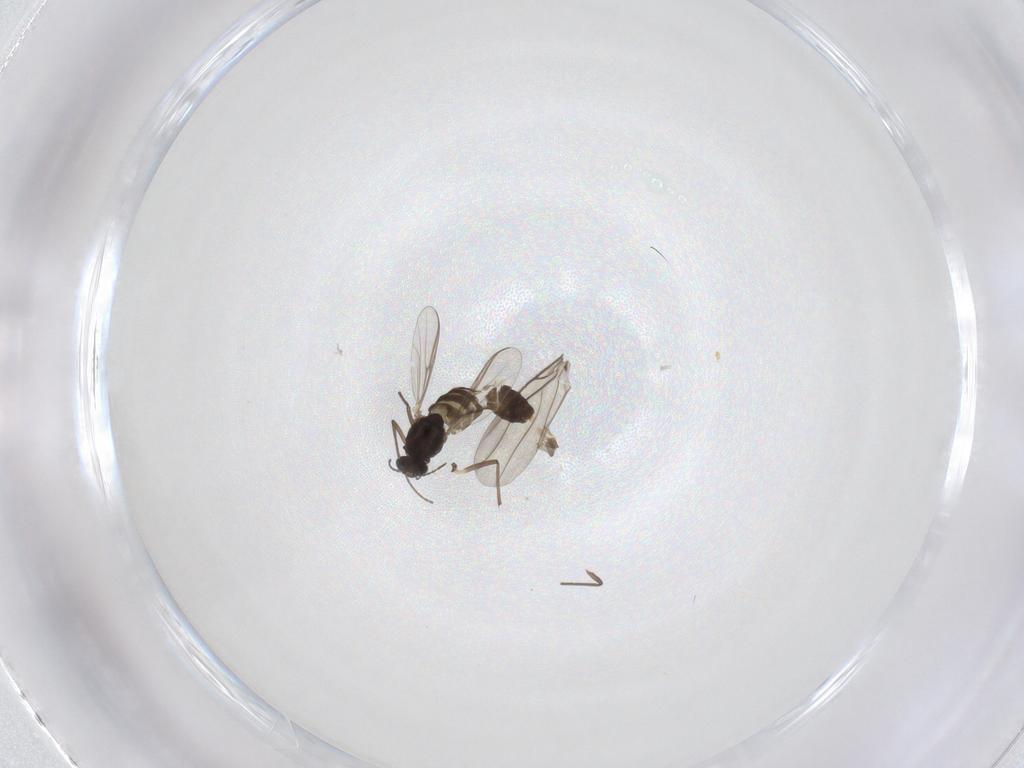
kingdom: Animalia
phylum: Arthropoda
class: Insecta
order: Diptera
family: Chironomidae
